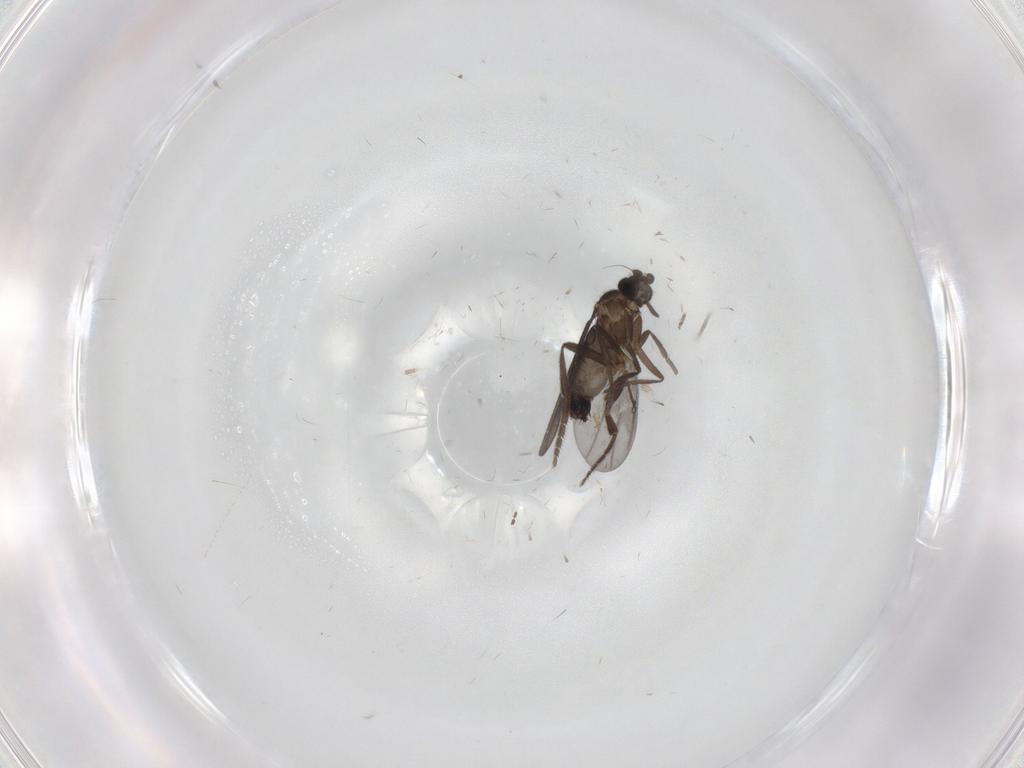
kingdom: Animalia
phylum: Arthropoda
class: Insecta
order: Diptera
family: Phoridae
